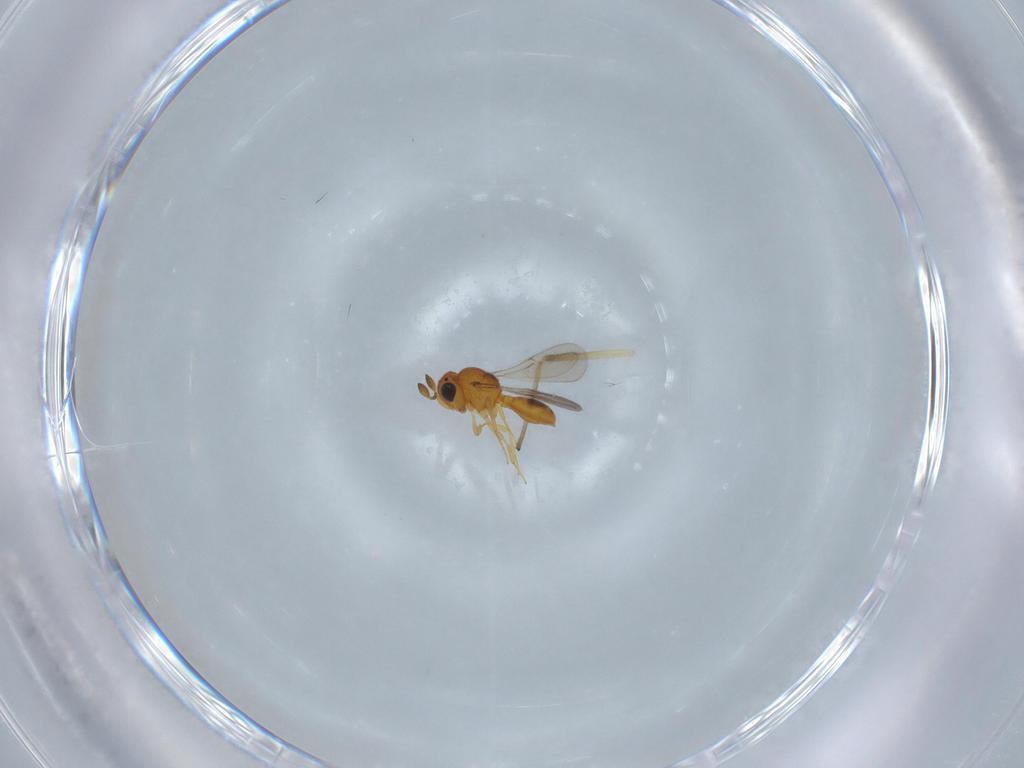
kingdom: Animalia
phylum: Arthropoda
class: Insecta
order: Hymenoptera
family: Scelionidae
